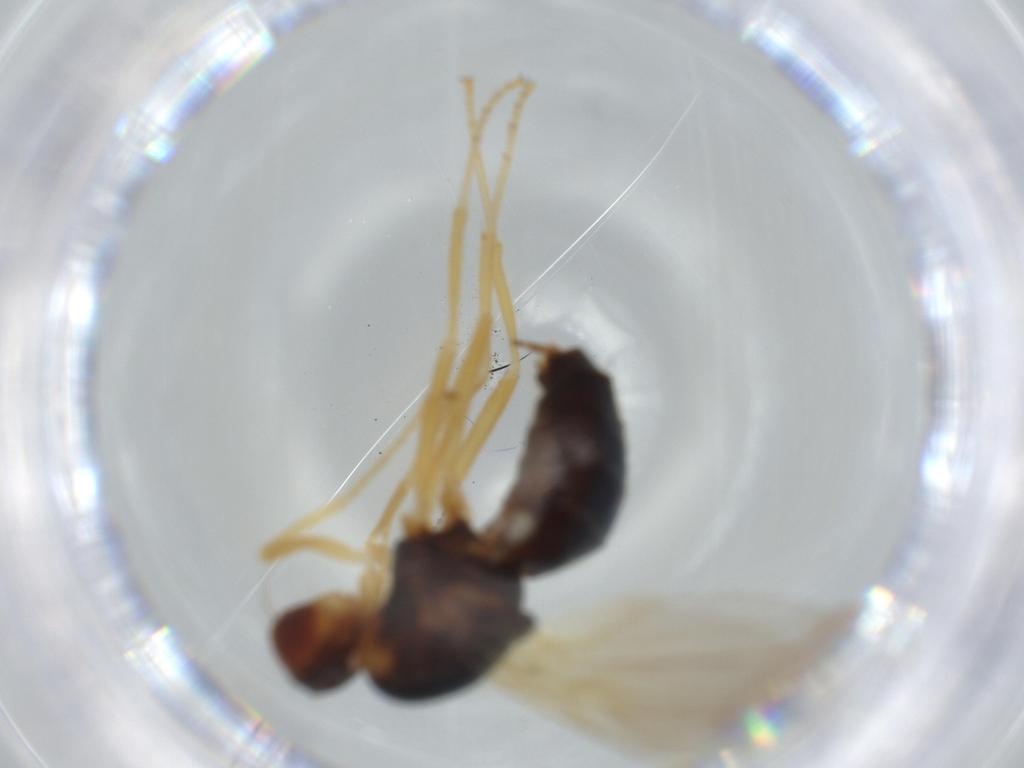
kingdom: Animalia
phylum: Arthropoda
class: Insecta
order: Diptera
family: Cecidomyiidae
